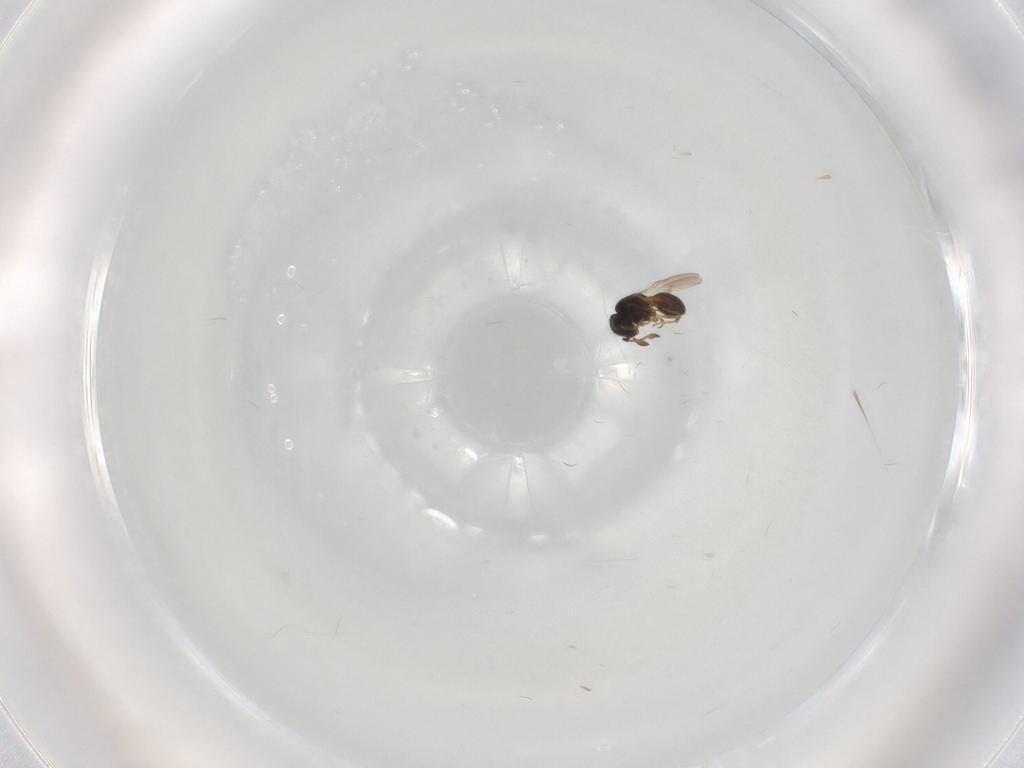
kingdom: Animalia
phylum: Arthropoda
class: Insecta
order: Hymenoptera
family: Scelionidae
